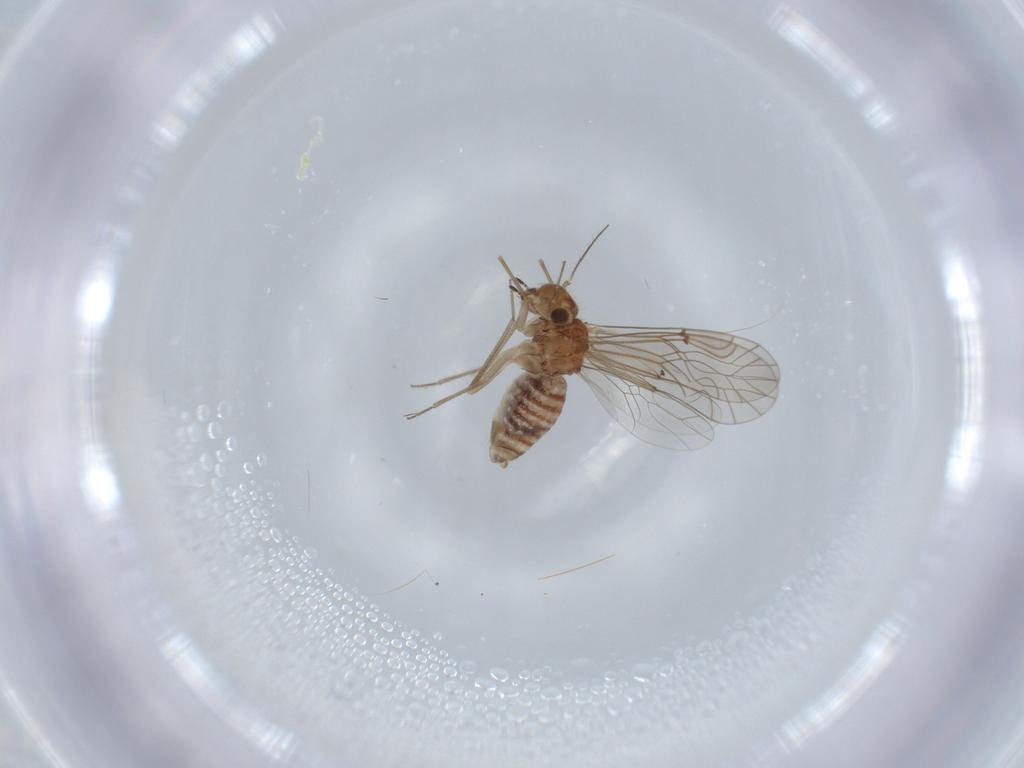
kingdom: Animalia
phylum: Arthropoda
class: Insecta
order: Psocodea
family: Lachesillidae
